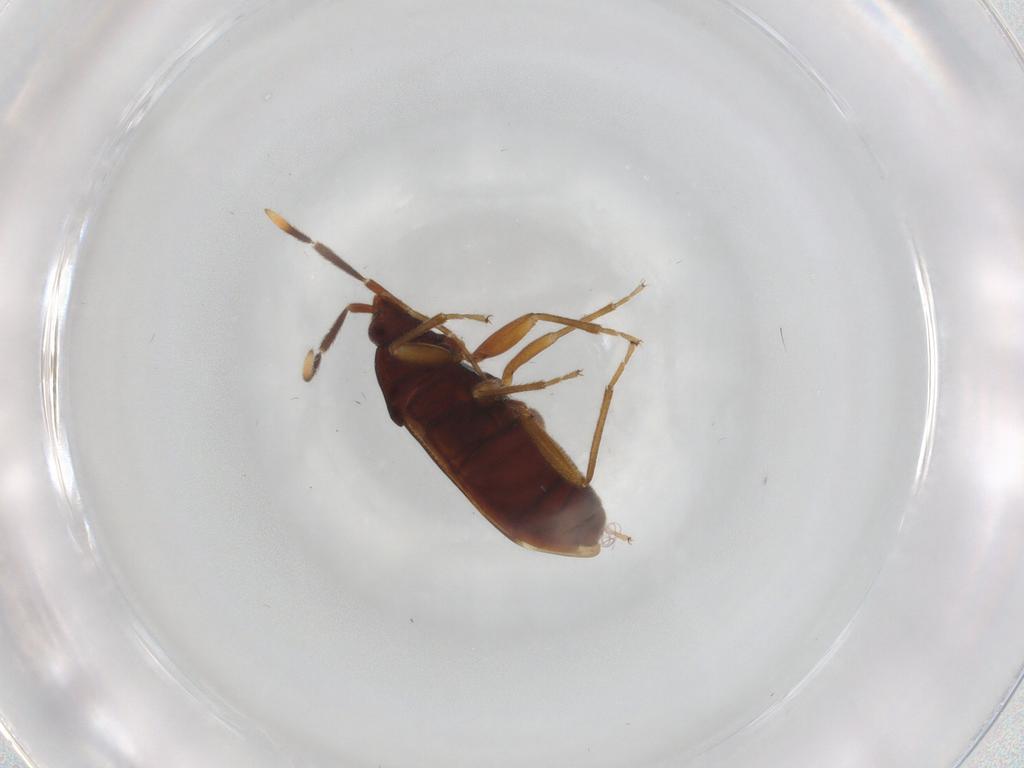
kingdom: Animalia
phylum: Arthropoda
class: Insecta
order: Hemiptera
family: Rhyparochromidae
